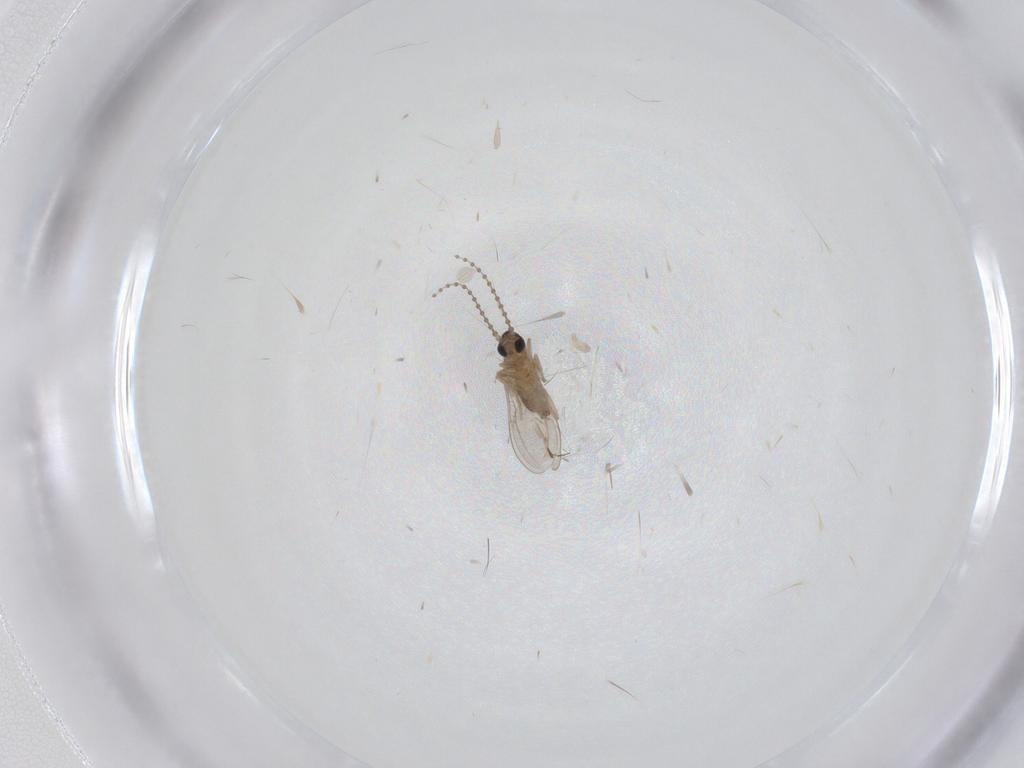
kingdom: Animalia
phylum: Arthropoda
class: Insecta
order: Diptera
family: Cecidomyiidae
